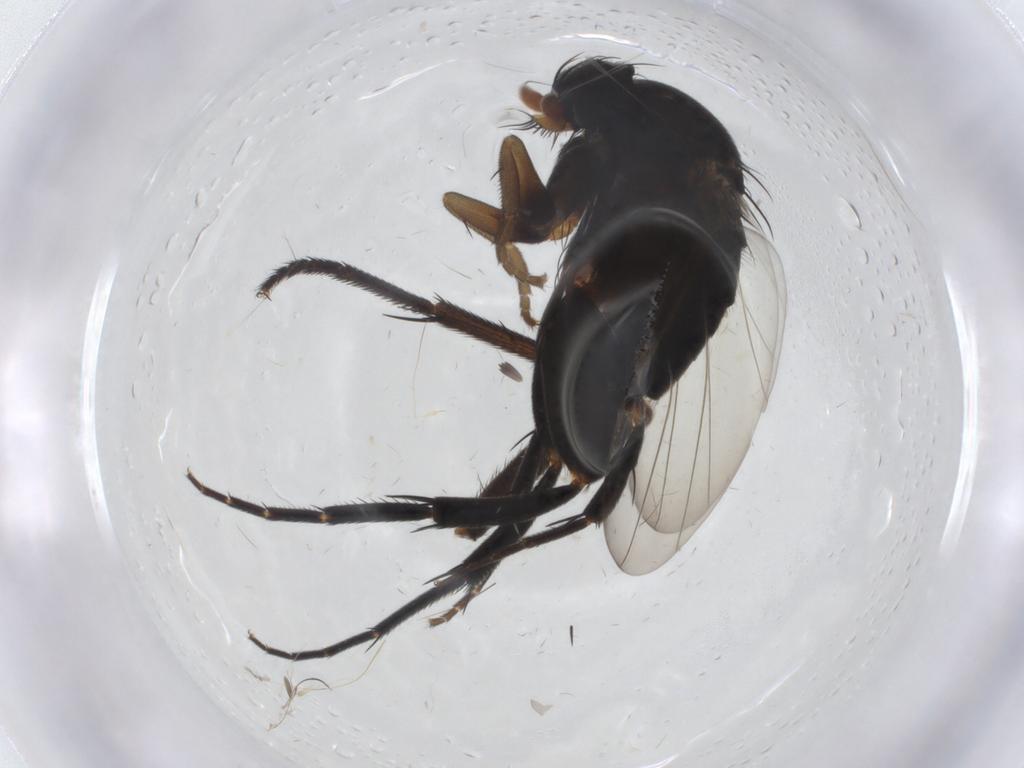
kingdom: Animalia
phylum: Arthropoda
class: Insecta
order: Diptera
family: Phoridae
